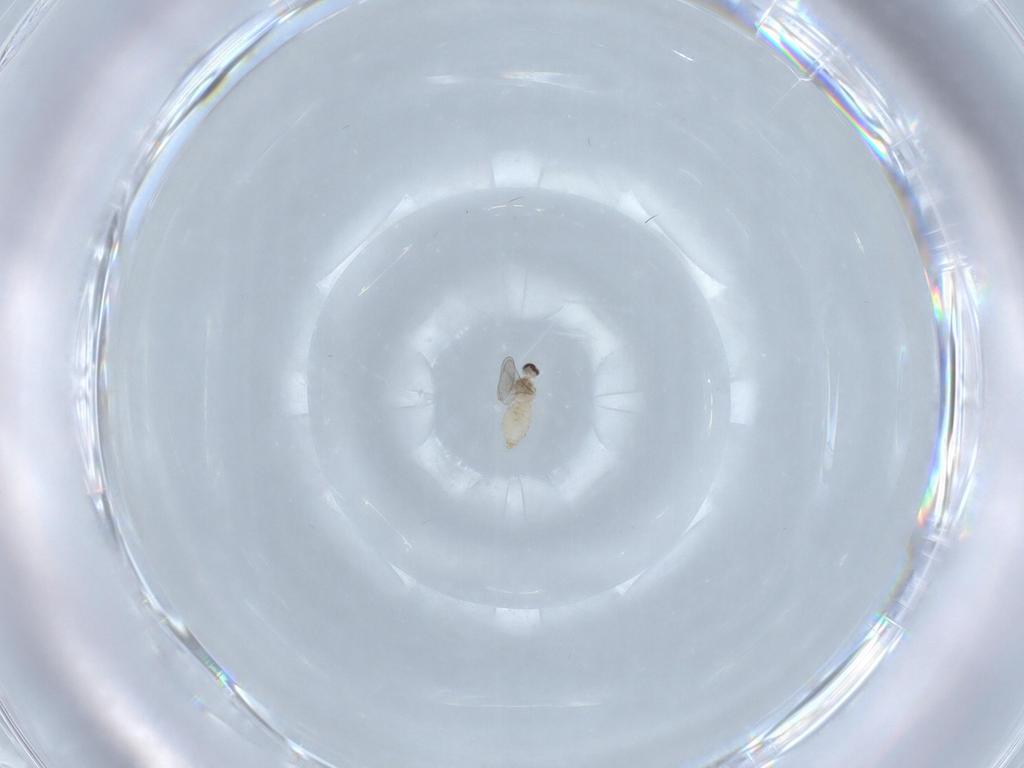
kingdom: Animalia
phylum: Arthropoda
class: Insecta
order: Diptera
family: Cecidomyiidae
